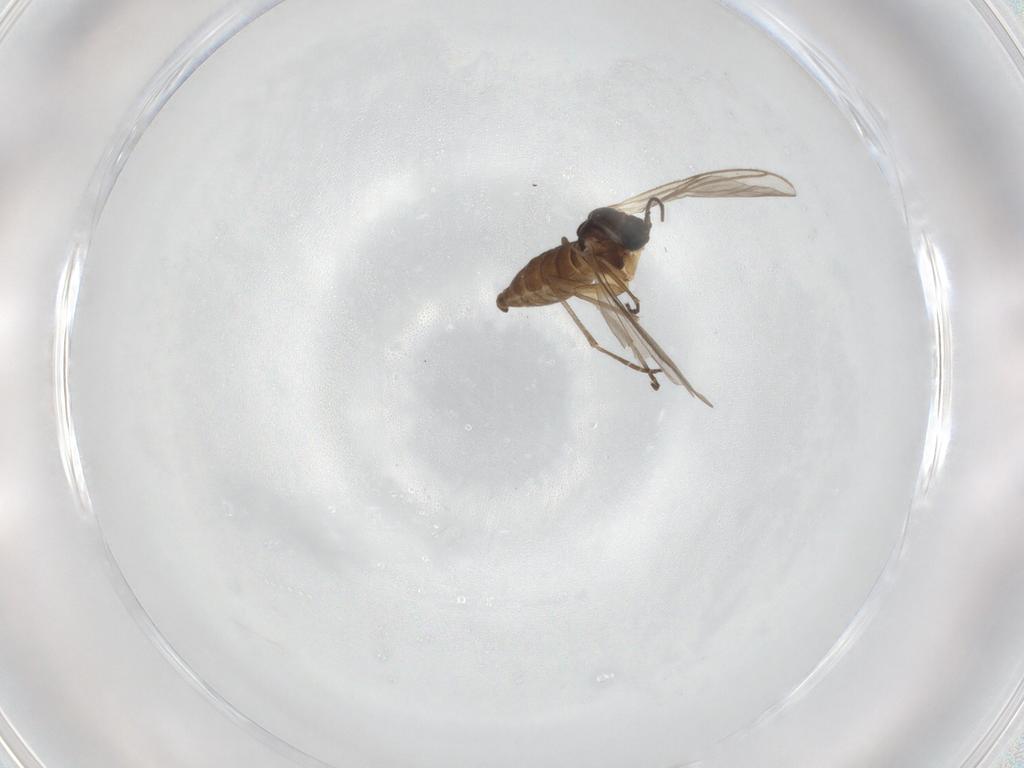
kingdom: Animalia
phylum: Arthropoda
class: Insecta
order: Diptera
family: Sciaridae
